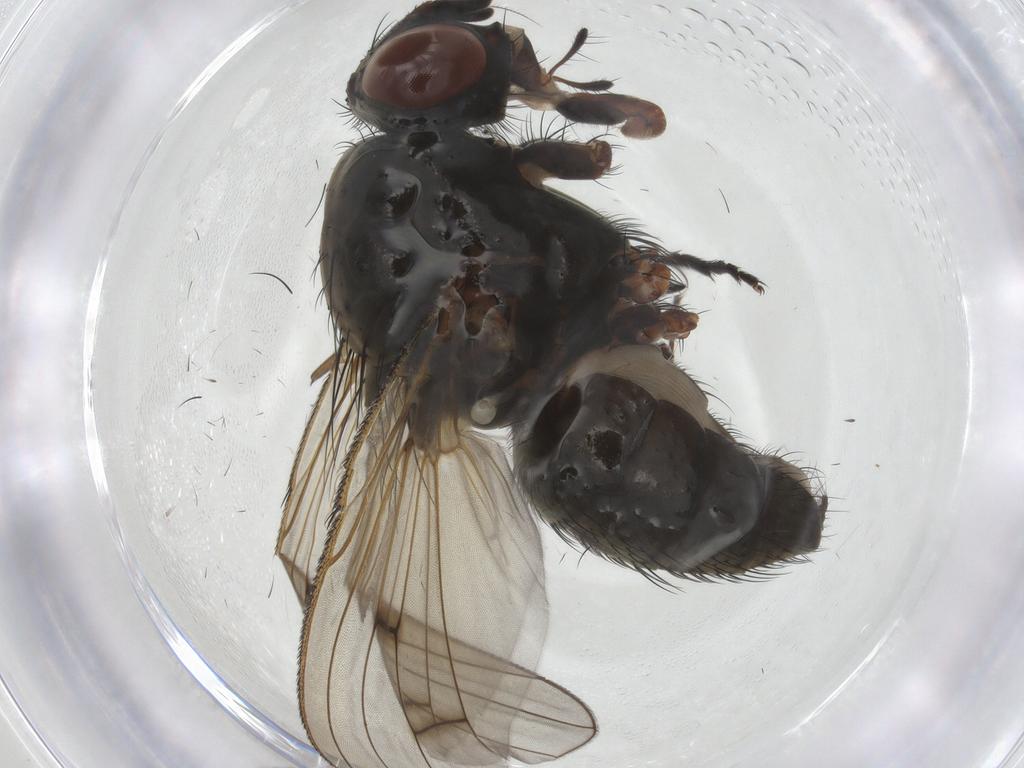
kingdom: Animalia
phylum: Arthropoda
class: Insecta
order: Diptera
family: Anthomyiidae
